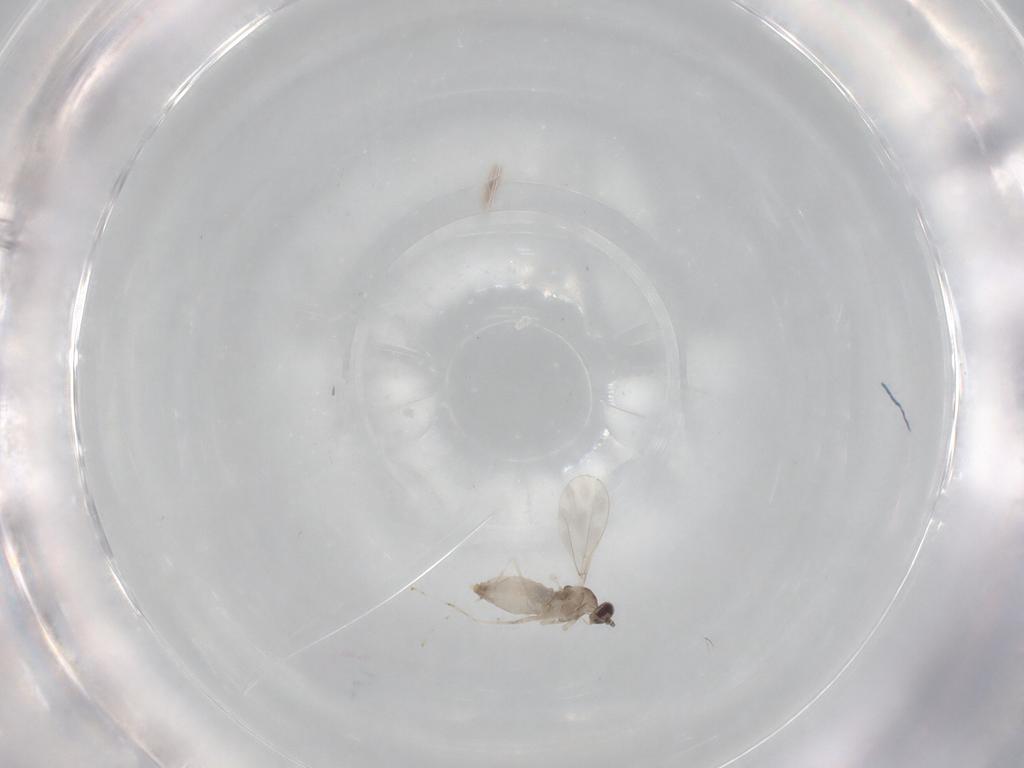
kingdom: Animalia
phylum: Arthropoda
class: Insecta
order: Diptera
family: Cecidomyiidae
